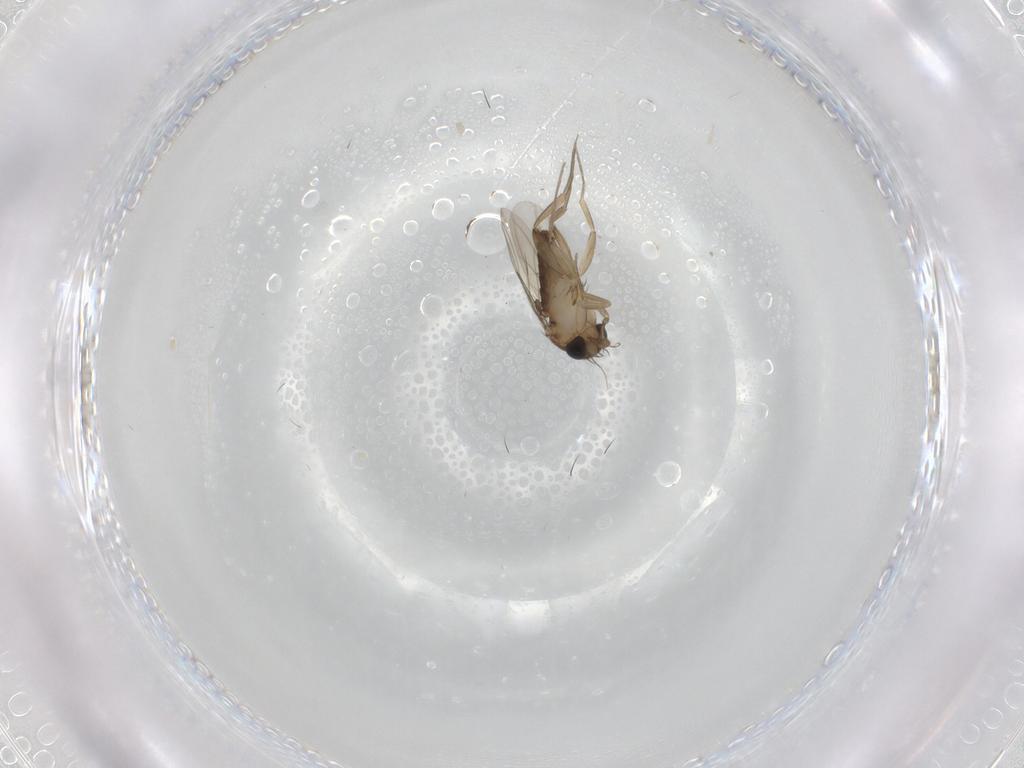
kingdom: Animalia
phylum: Arthropoda
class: Insecta
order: Diptera
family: Phoridae
